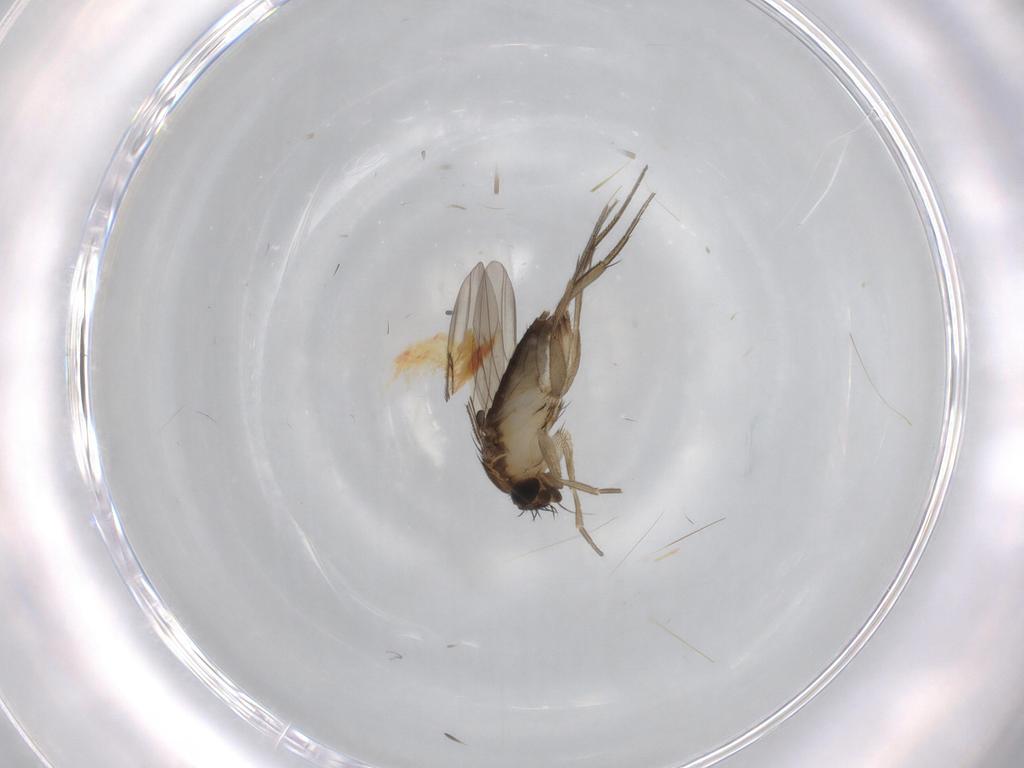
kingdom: Animalia
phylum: Arthropoda
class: Insecta
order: Diptera
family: Phoridae
